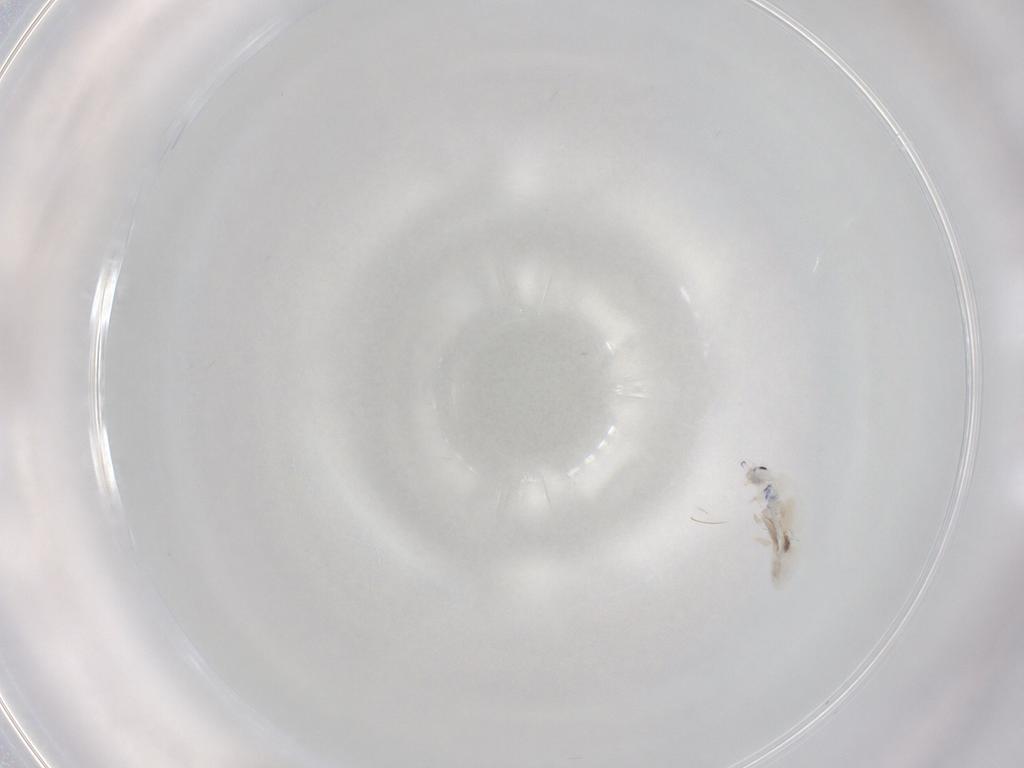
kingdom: Animalia
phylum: Arthropoda
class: Collembola
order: Entomobryomorpha
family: Entomobryidae
